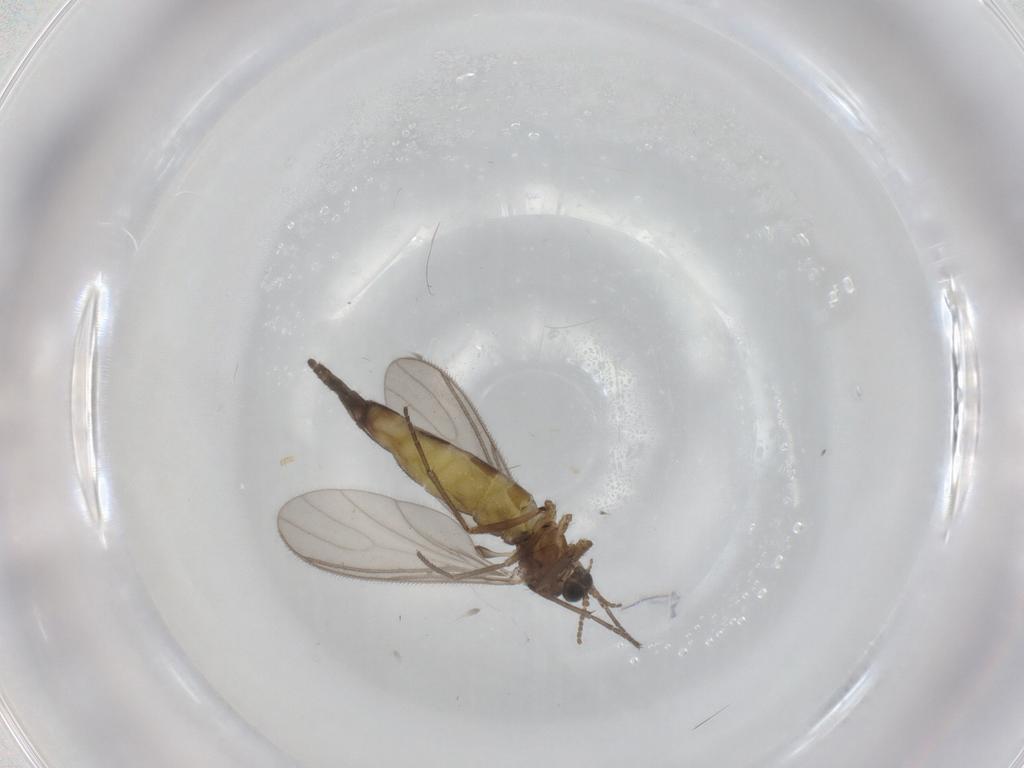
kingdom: Animalia
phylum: Arthropoda
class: Insecta
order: Diptera
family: Sciaridae
